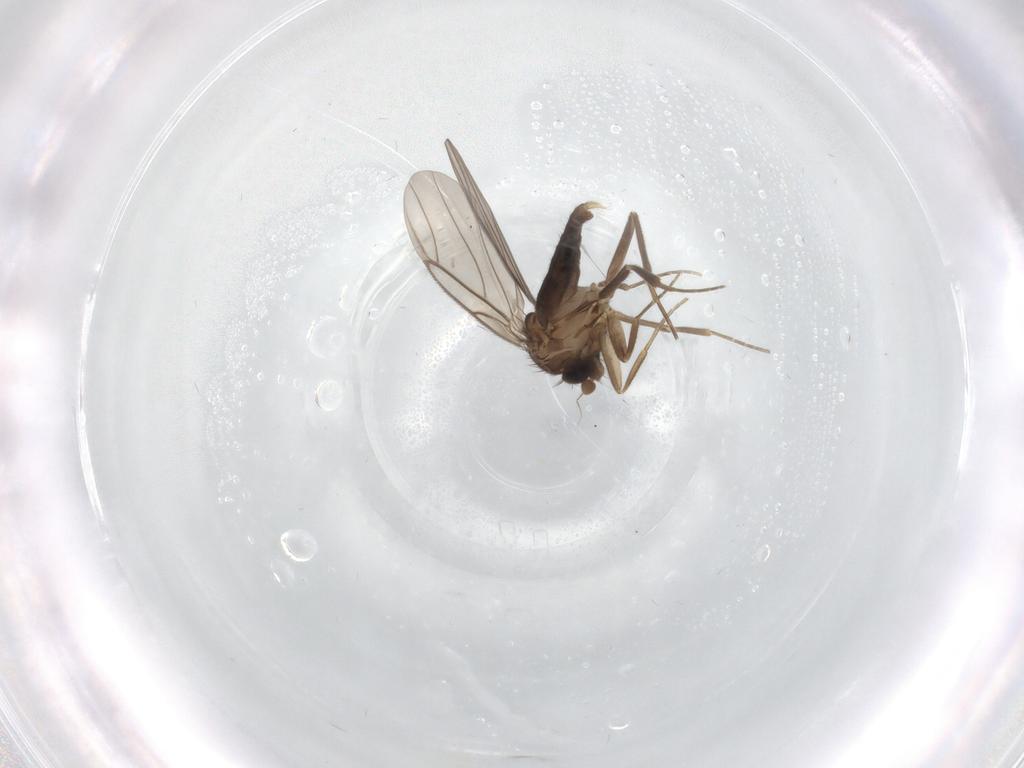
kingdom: Animalia
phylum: Arthropoda
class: Insecta
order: Diptera
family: Phoridae
